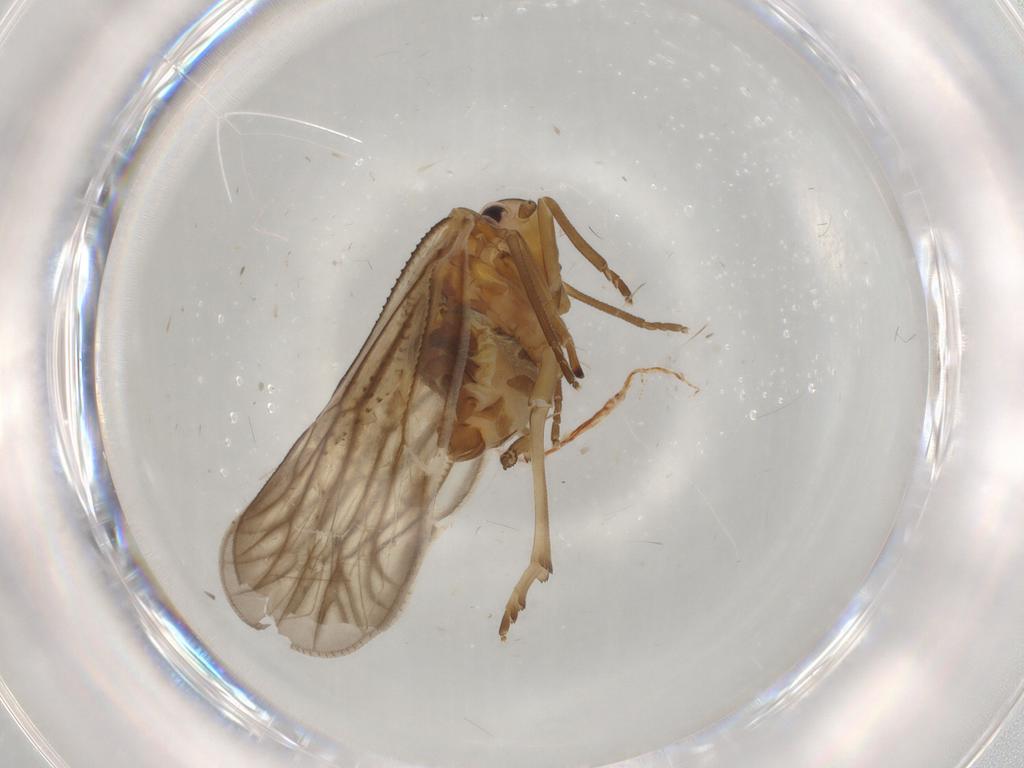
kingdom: Animalia
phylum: Arthropoda
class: Insecta
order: Hemiptera
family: Meenoplidae
